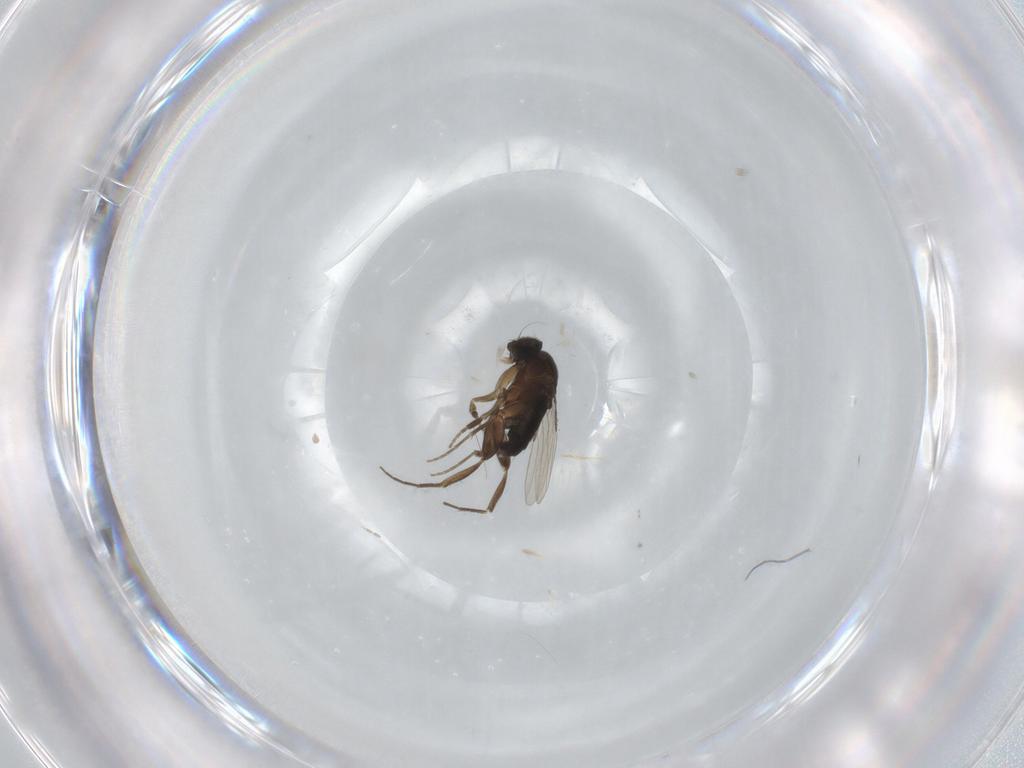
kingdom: Animalia
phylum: Arthropoda
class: Insecta
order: Diptera
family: Phoridae
